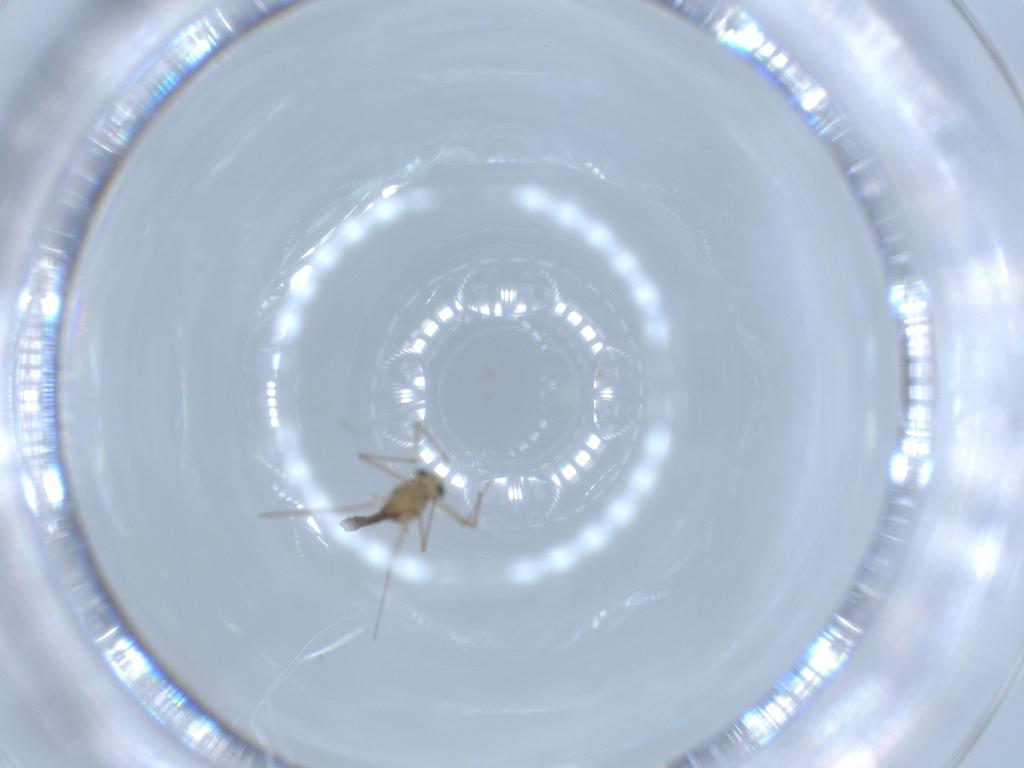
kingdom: Animalia
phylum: Arthropoda
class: Insecta
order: Diptera
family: Chironomidae
